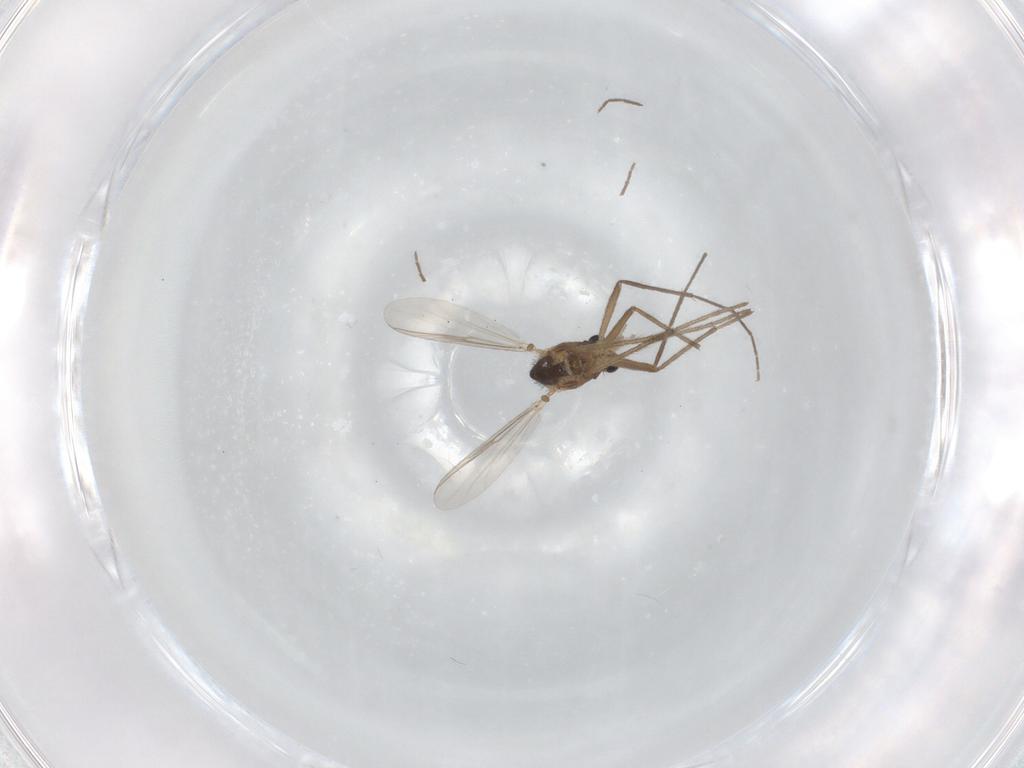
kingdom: Animalia
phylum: Arthropoda
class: Insecta
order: Diptera
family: Chironomidae
